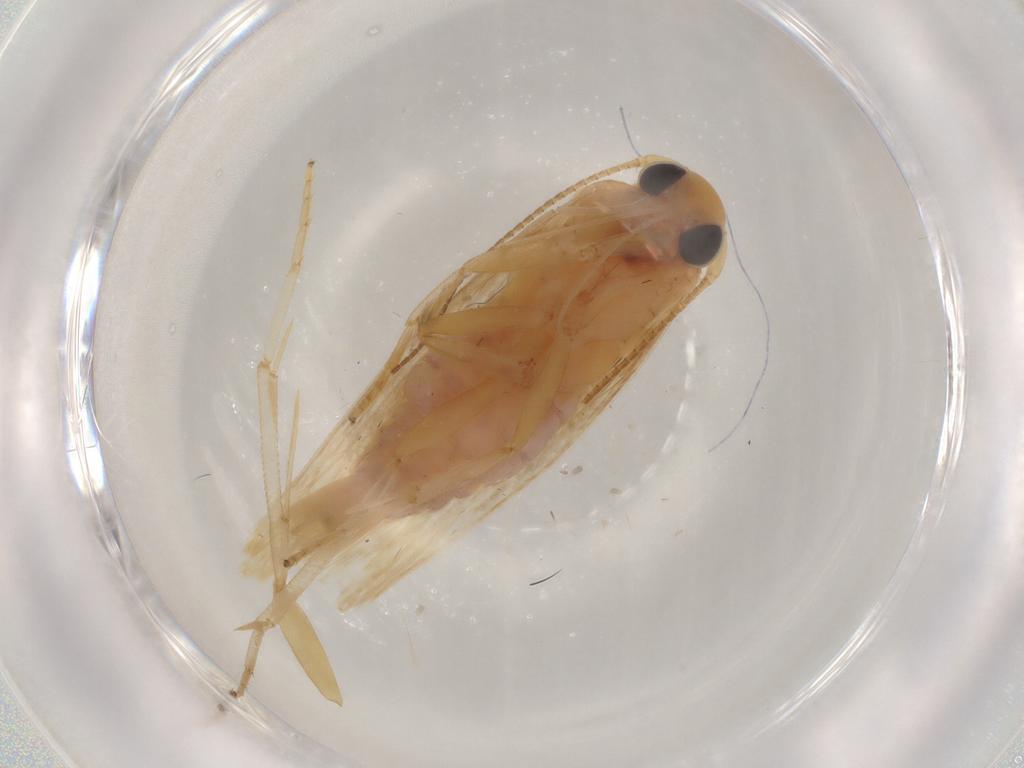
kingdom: Animalia
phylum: Arthropoda
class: Insecta
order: Lepidoptera
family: Stathmopodidae
